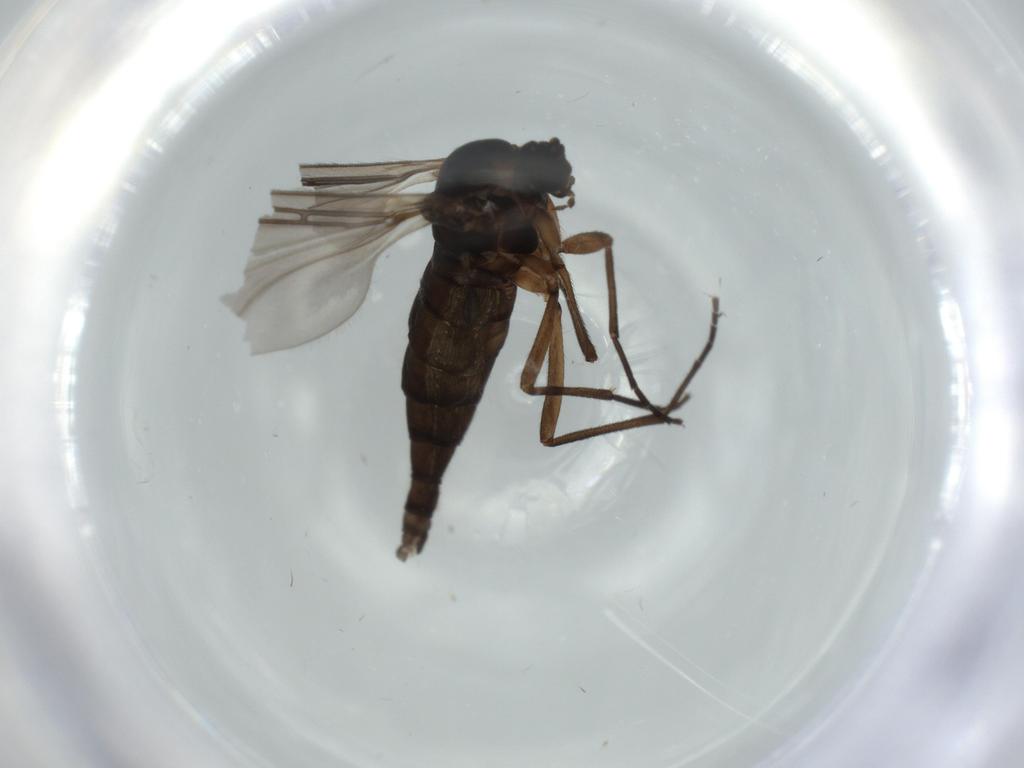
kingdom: Animalia
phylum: Arthropoda
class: Insecta
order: Diptera
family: Sciaridae
